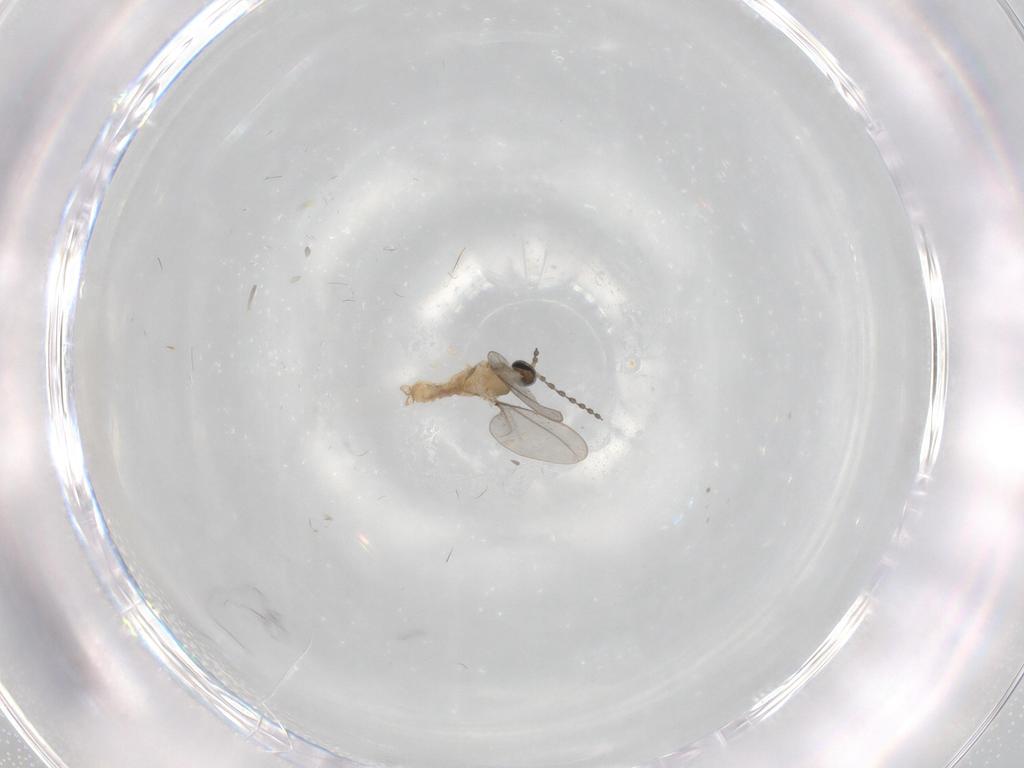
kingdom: Animalia
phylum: Arthropoda
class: Insecta
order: Diptera
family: Cecidomyiidae
